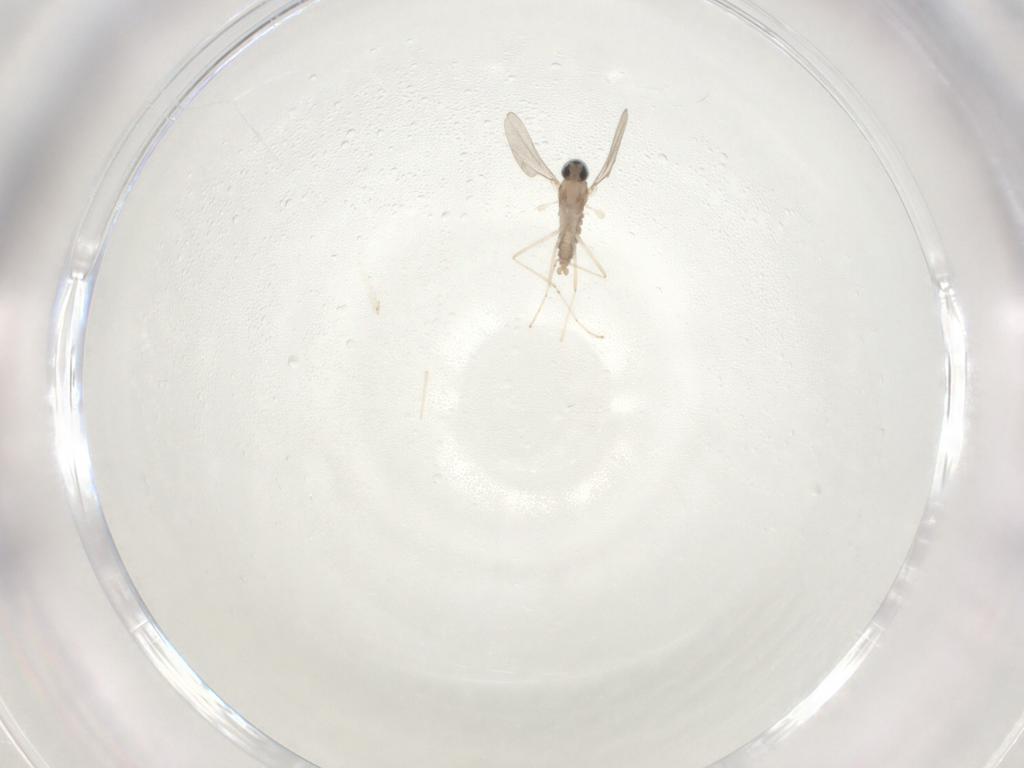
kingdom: Animalia
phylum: Arthropoda
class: Insecta
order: Diptera
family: Cecidomyiidae
